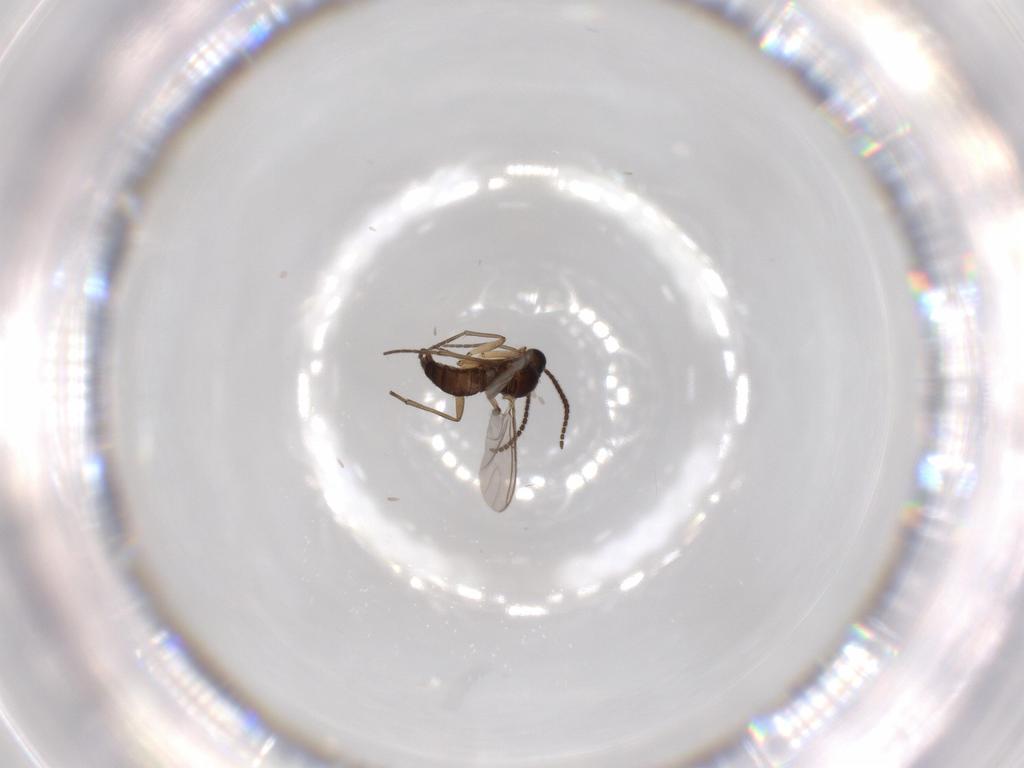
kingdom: Animalia
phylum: Arthropoda
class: Insecta
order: Diptera
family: Sciaridae
